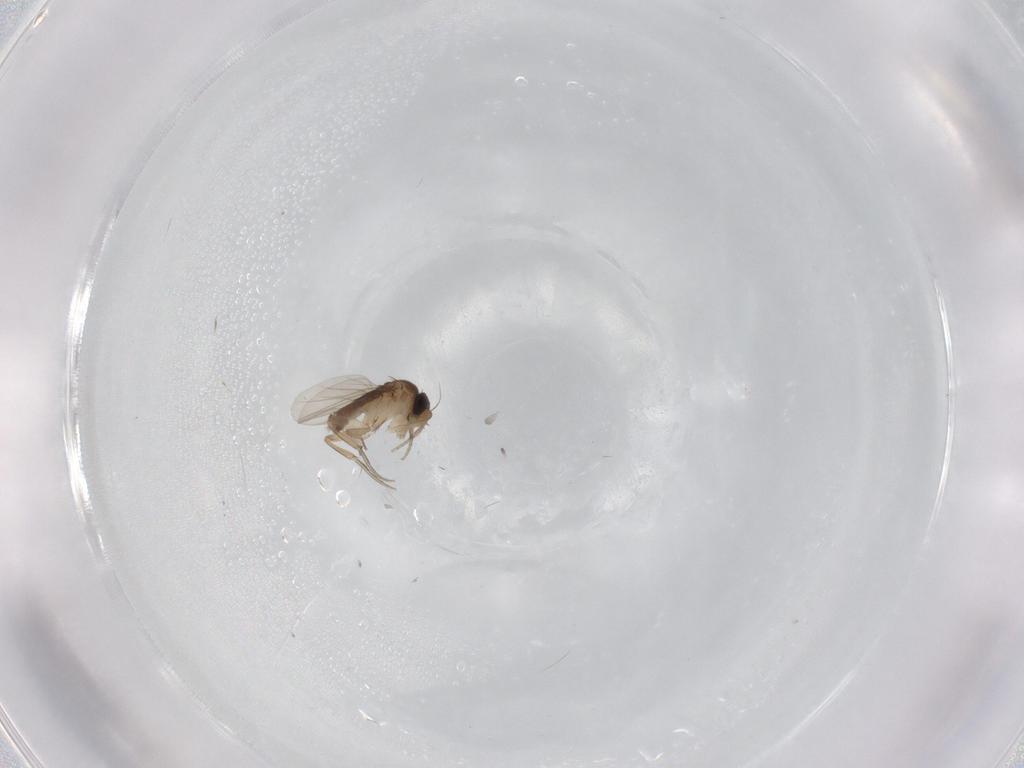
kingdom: Animalia
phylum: Arthropoda
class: Insecta
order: Diptera
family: Phoridae
